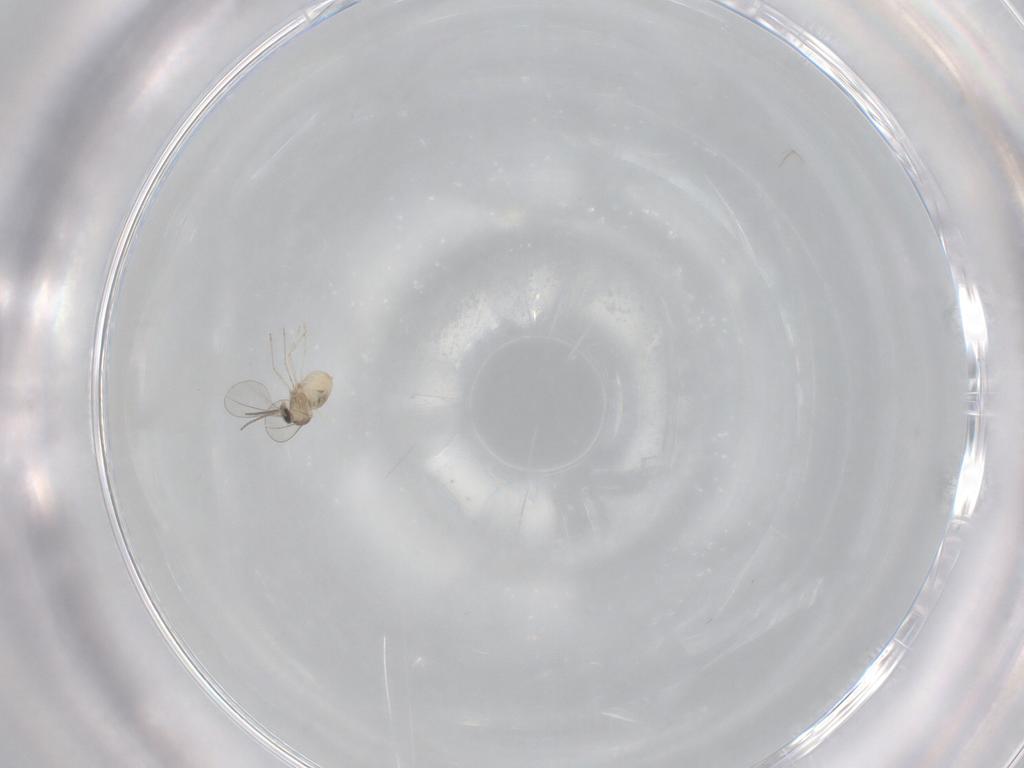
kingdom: Animalia
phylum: Arthropoda
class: Insecta
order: Diptera
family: Cecidomyiidae
